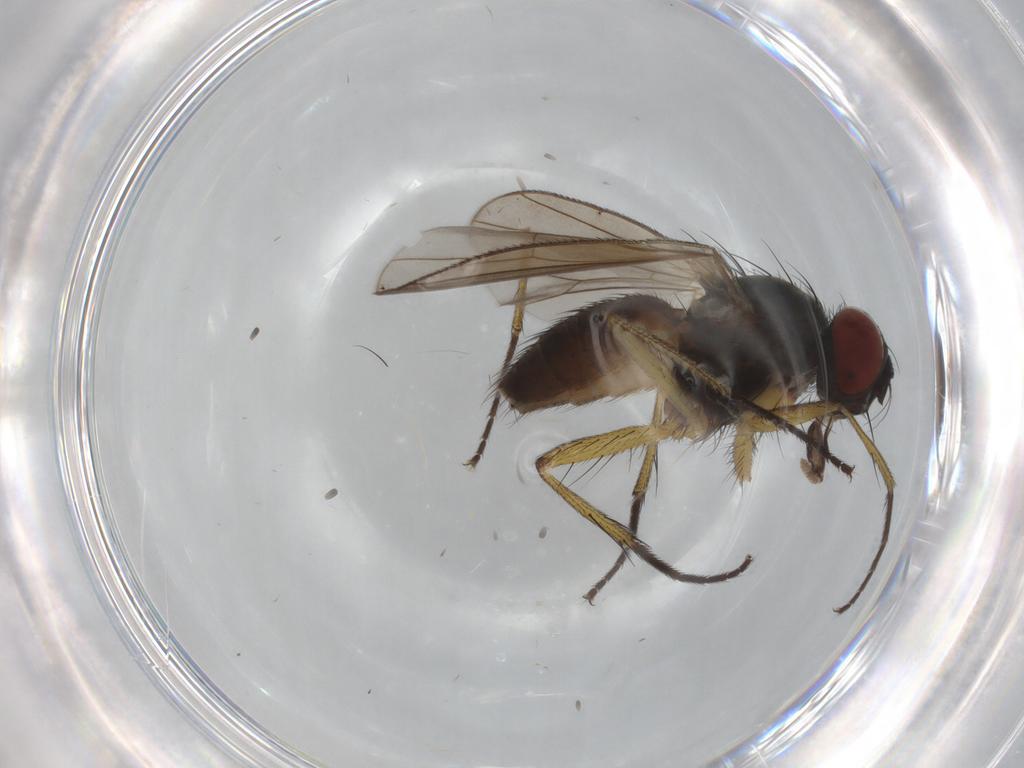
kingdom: Animalia
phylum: Arthropoda
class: Insecta
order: Diptera
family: Muscidae
